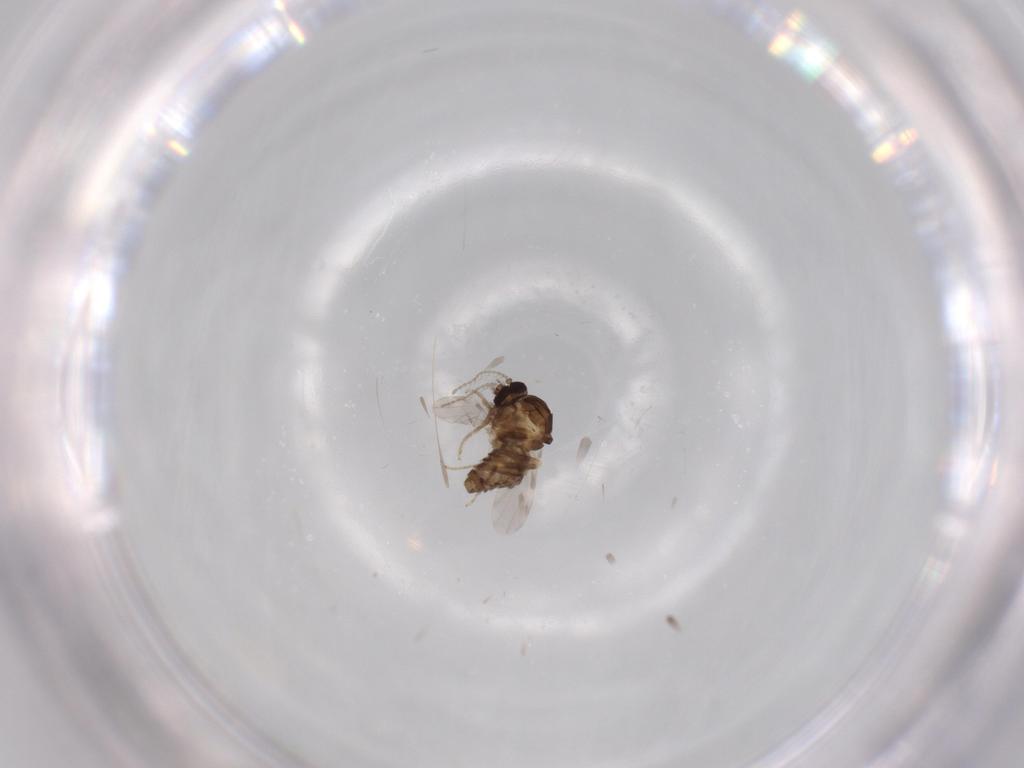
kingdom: Animalia
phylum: Arthropoda
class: Insecta
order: Diptera
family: Ceratopogonidae
